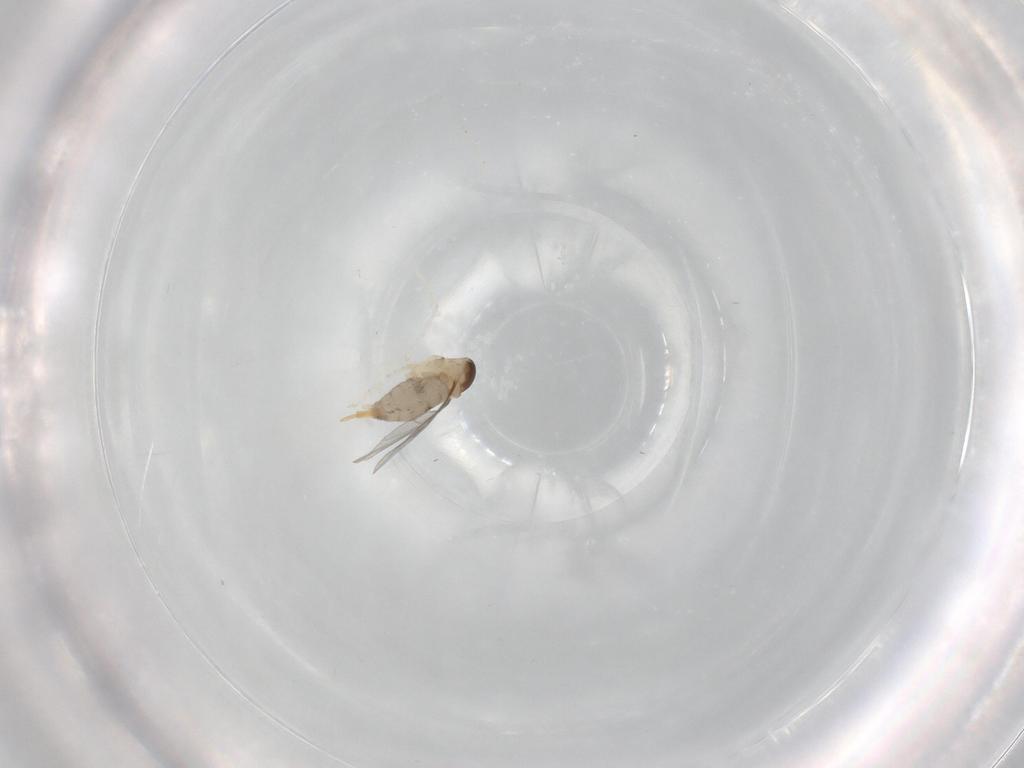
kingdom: Animalia
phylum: Arthropoda
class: Insecta
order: Diptera
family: Cecidomyiidae
